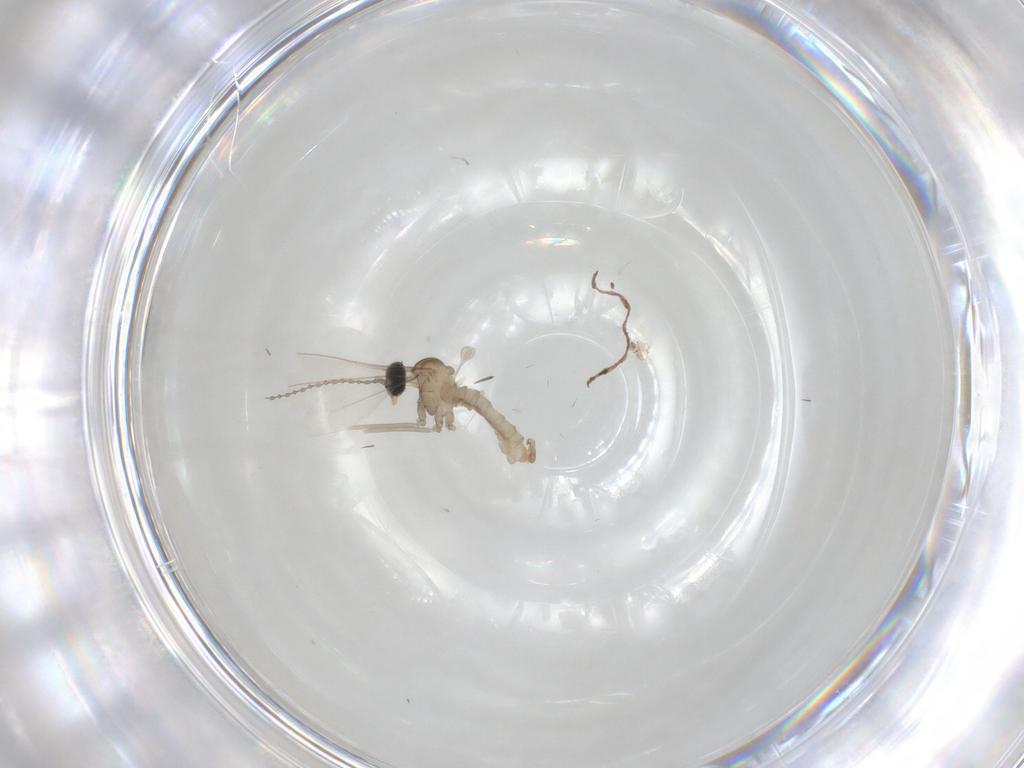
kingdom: Animalia
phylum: Arthropoda
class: Insecta
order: Diptera
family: Cecidomyiidae
